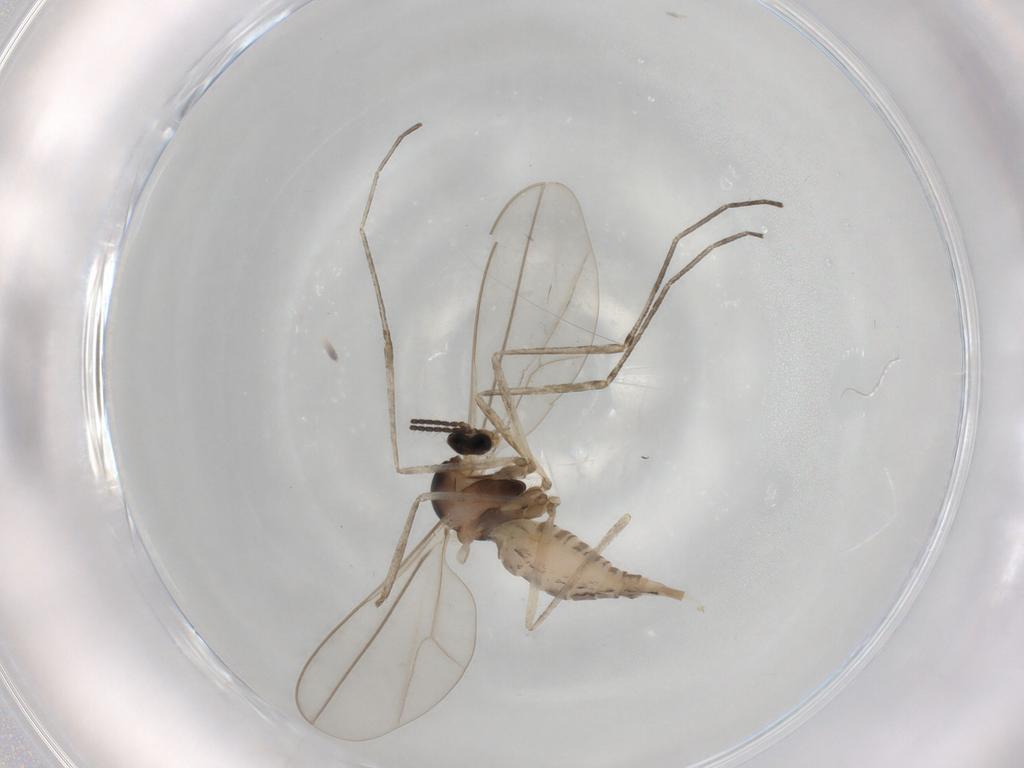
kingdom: Animalia
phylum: Arthropoda
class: Insecta
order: Diptera
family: Cecidomyiidae
